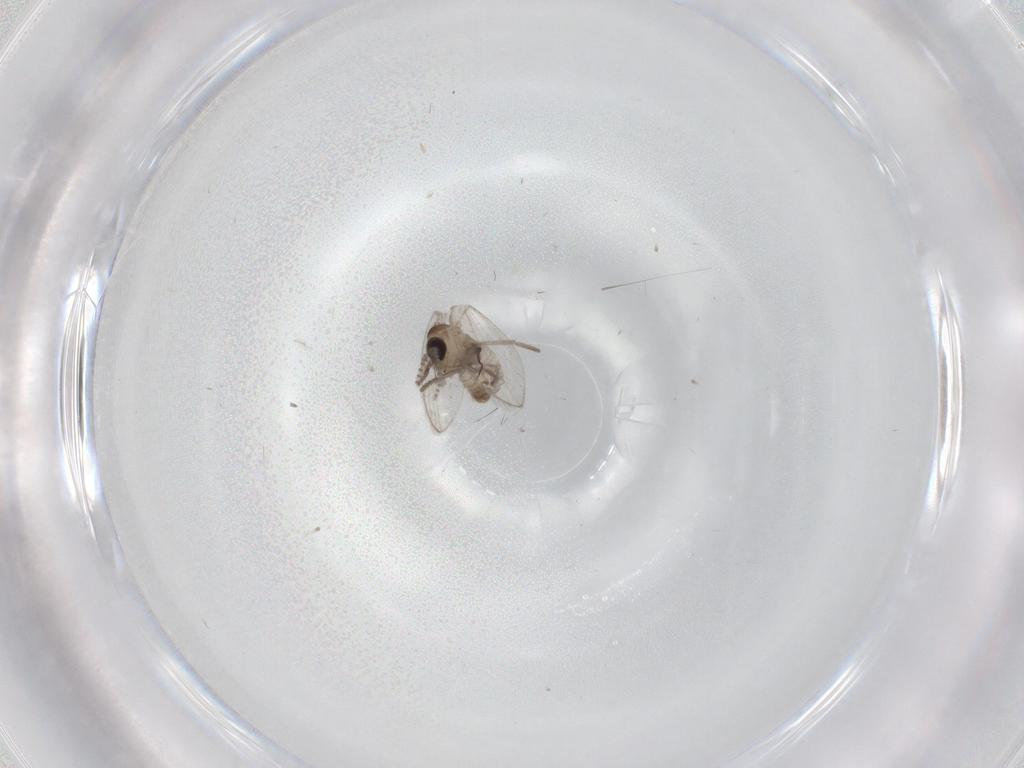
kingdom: Animalia
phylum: Arthropoda
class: Insecta
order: Diptera
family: Psychodidae
